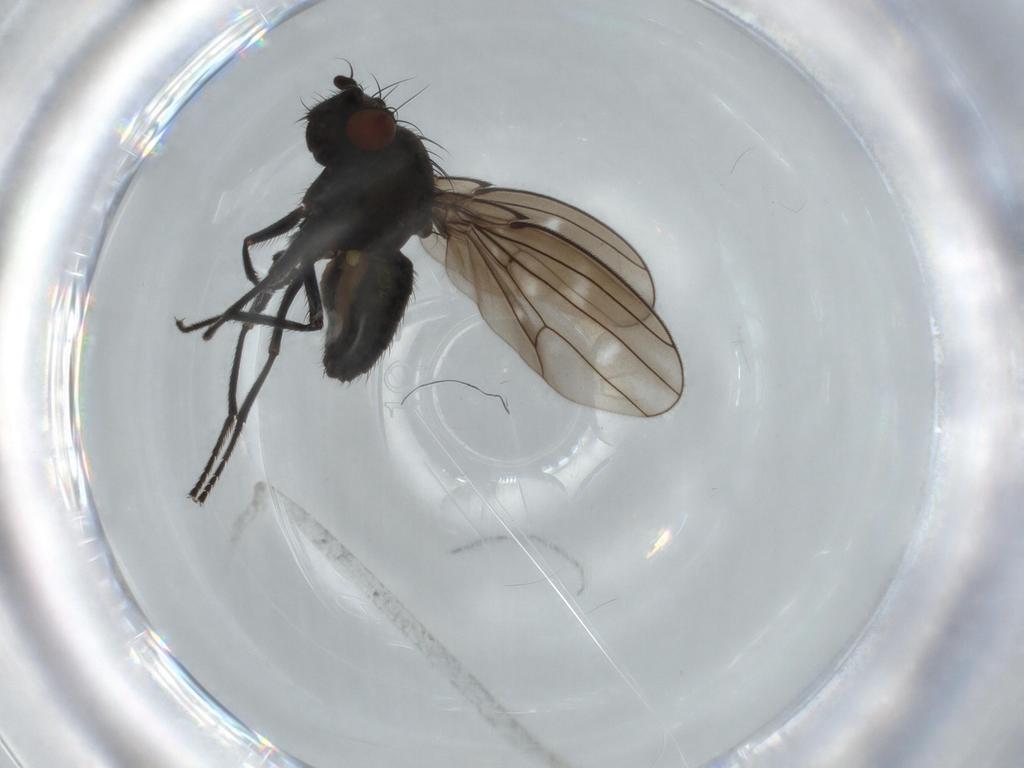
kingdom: Animalia
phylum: Arthropoda
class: Insecta
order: Diptera
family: Ephydridae
